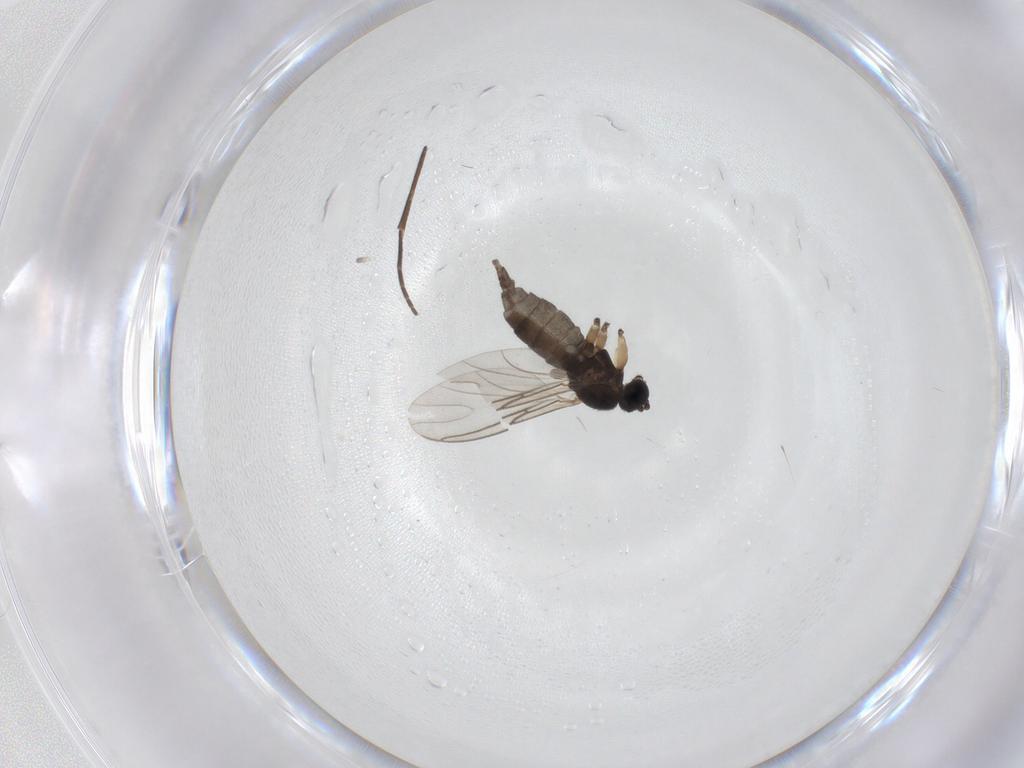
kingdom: Animalia
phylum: Arthropoda
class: Insecta
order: Diptera
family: Sciaridae
